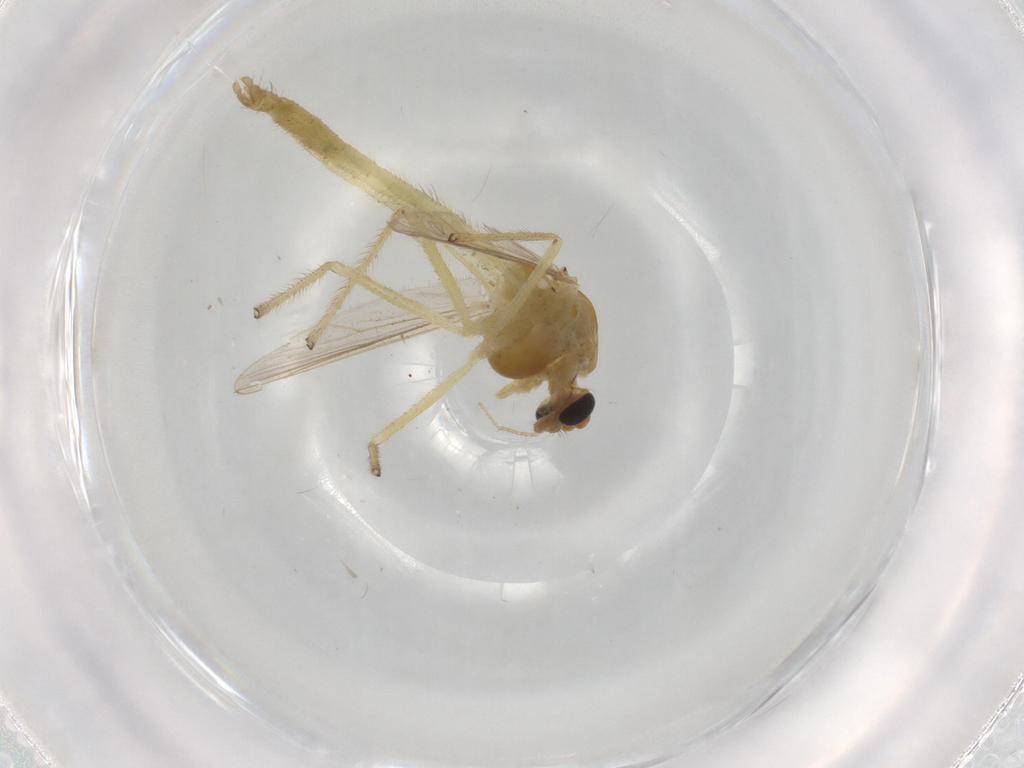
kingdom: Animalia
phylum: Arthropoda
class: Insecta
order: Diptera
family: Chironomidae
